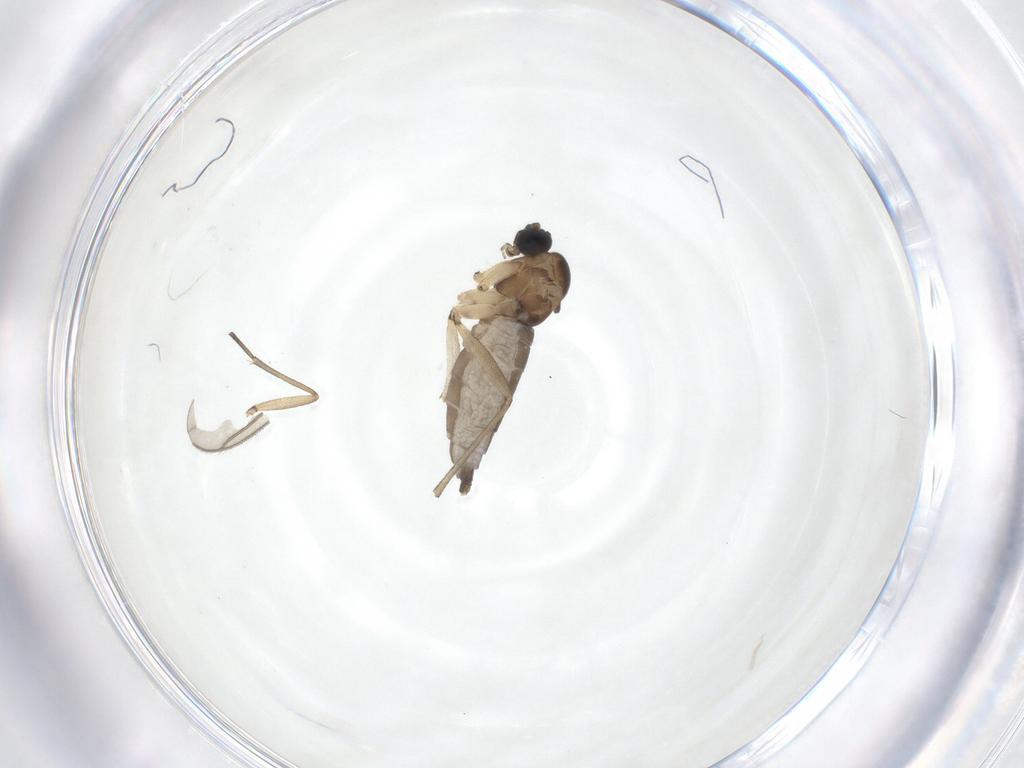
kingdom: Animalia
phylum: Arthropoda
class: Insecta
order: Diptera
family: Sciaridae
